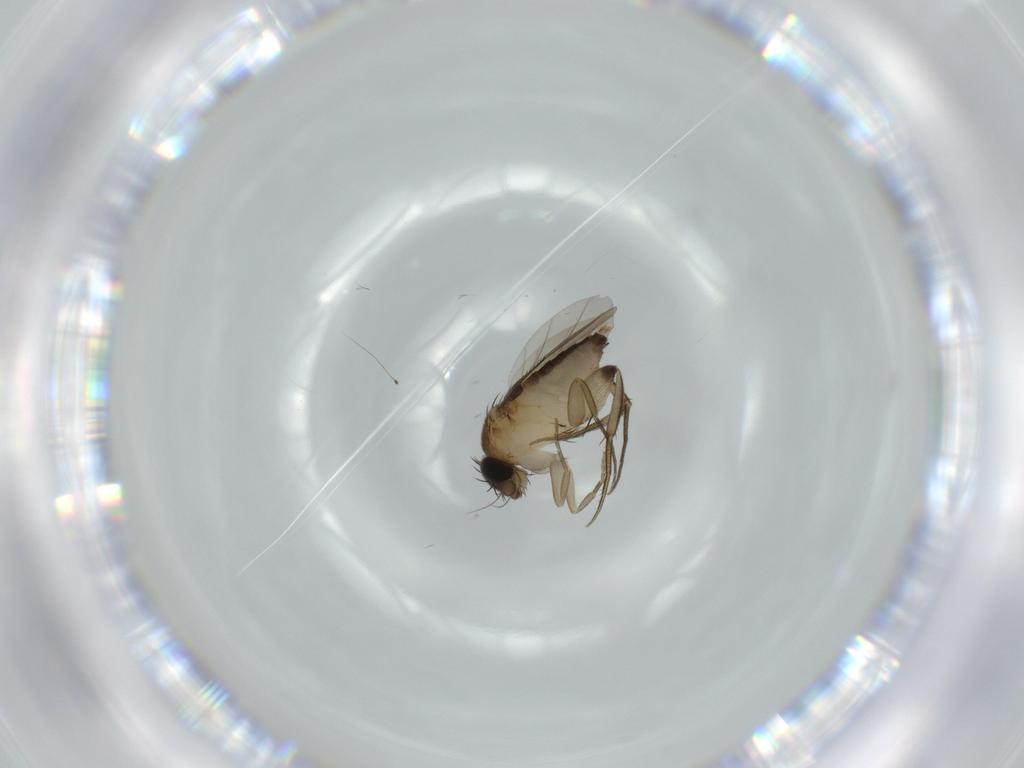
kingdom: Animalia
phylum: Arthropoda
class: Insecta
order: Diptera
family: Phoridae
